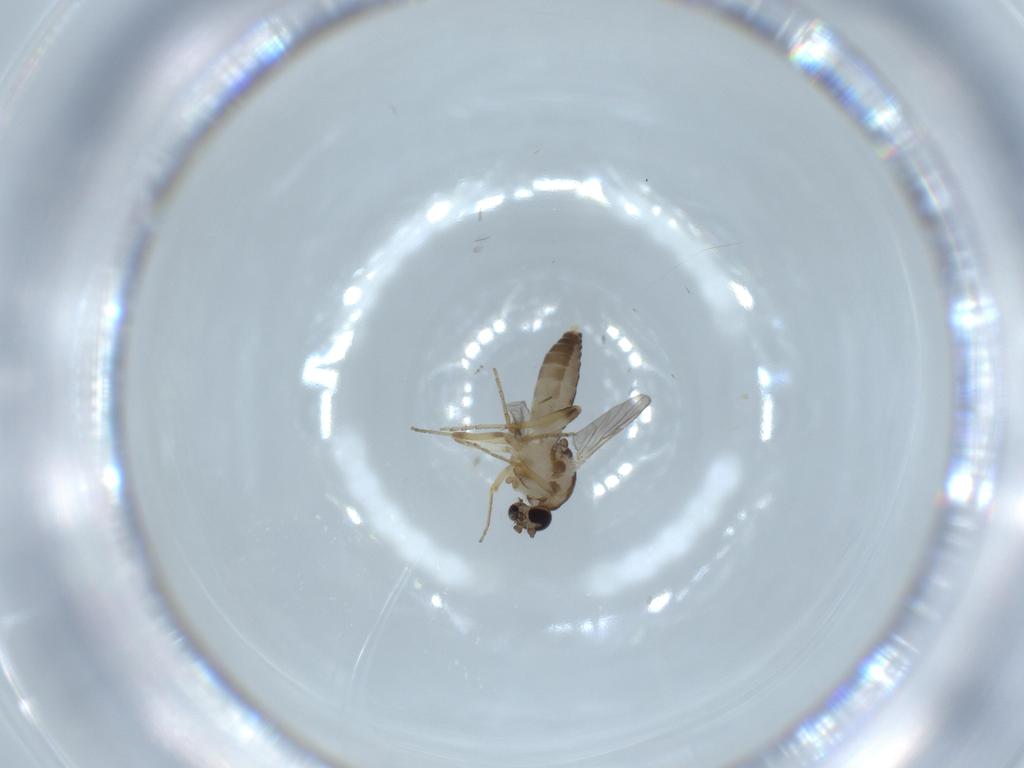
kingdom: Animalia
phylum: Arthropoda
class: Insecta
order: Diptera
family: Ceratopogonidae
